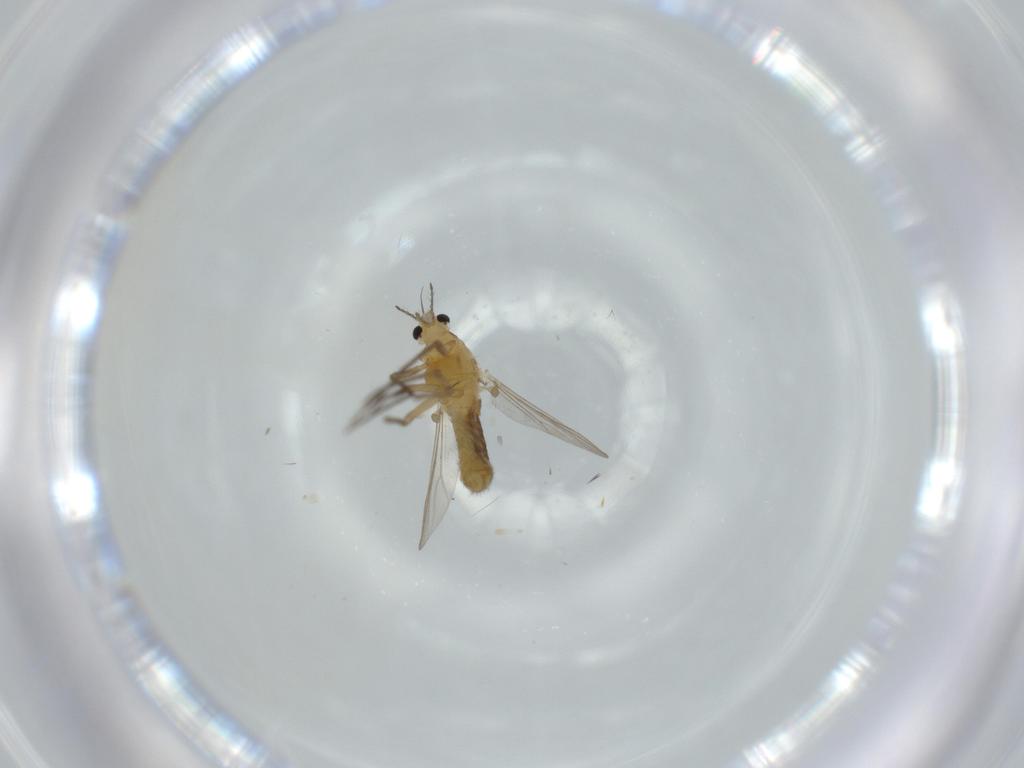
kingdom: Animalia
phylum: Arthropoda
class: Insecta
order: Diptera
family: Chironomidae
